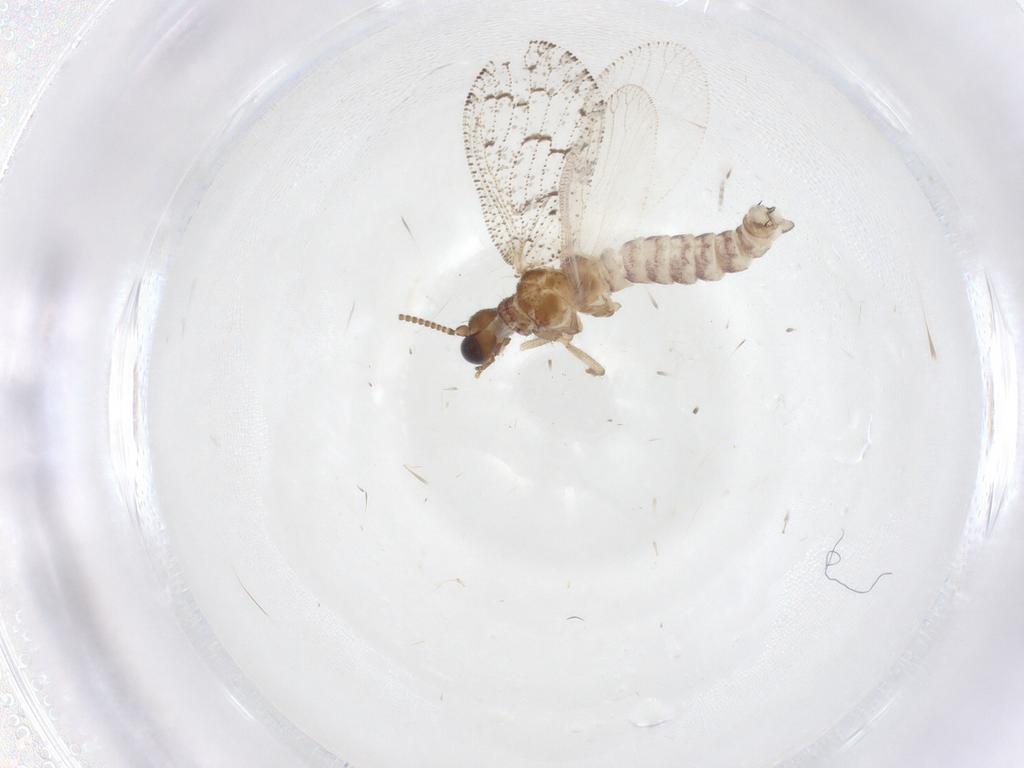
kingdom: Animalia
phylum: Arthropoda
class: Insecta
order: Neuroptera
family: Hemerobiidae
